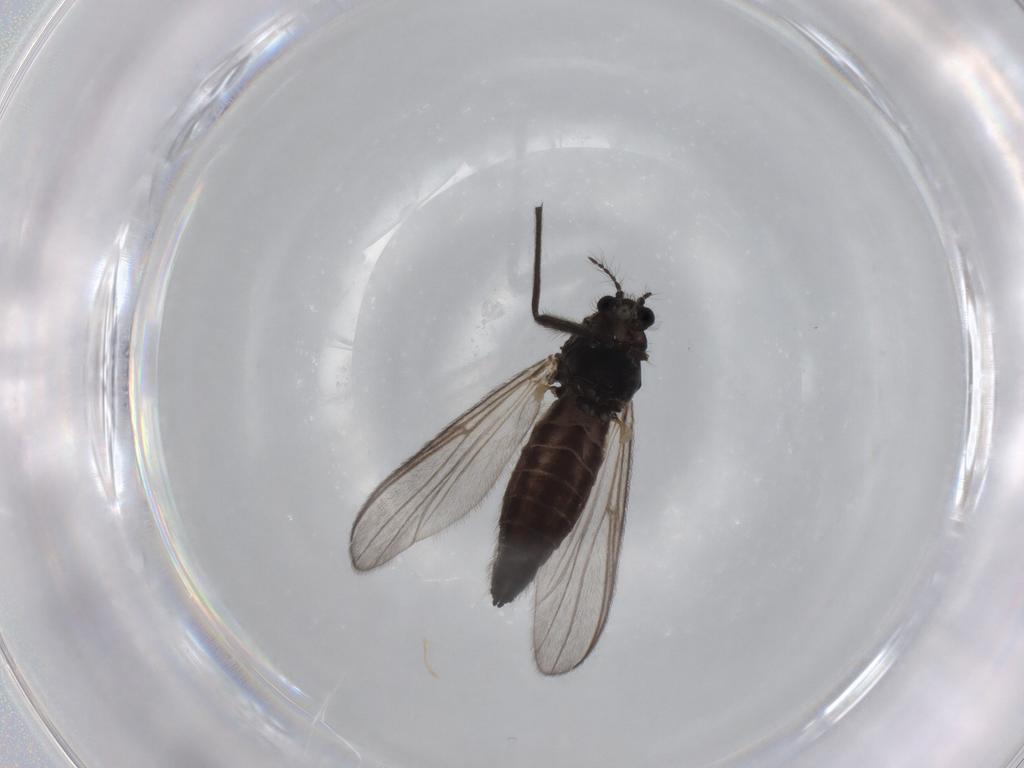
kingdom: Animalia
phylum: Arthropoda
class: Insecta
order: Diptera
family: Chironomidae
